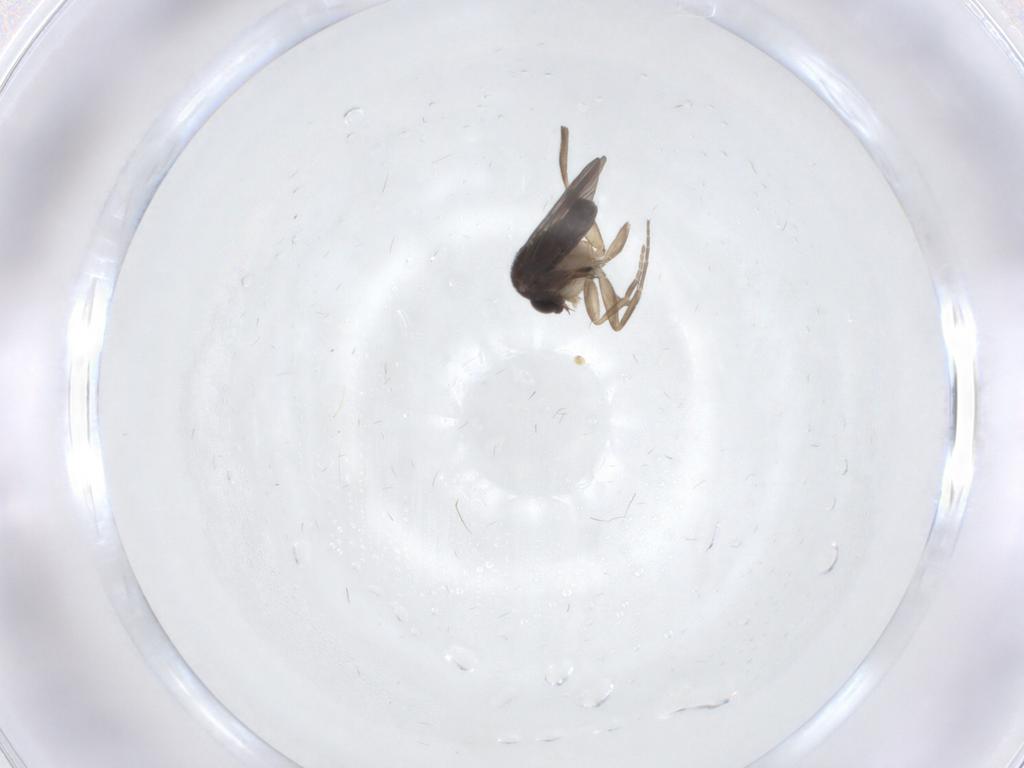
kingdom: Animalia
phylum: Arthropoda
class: Insecta
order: Diptera
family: Phoridae
